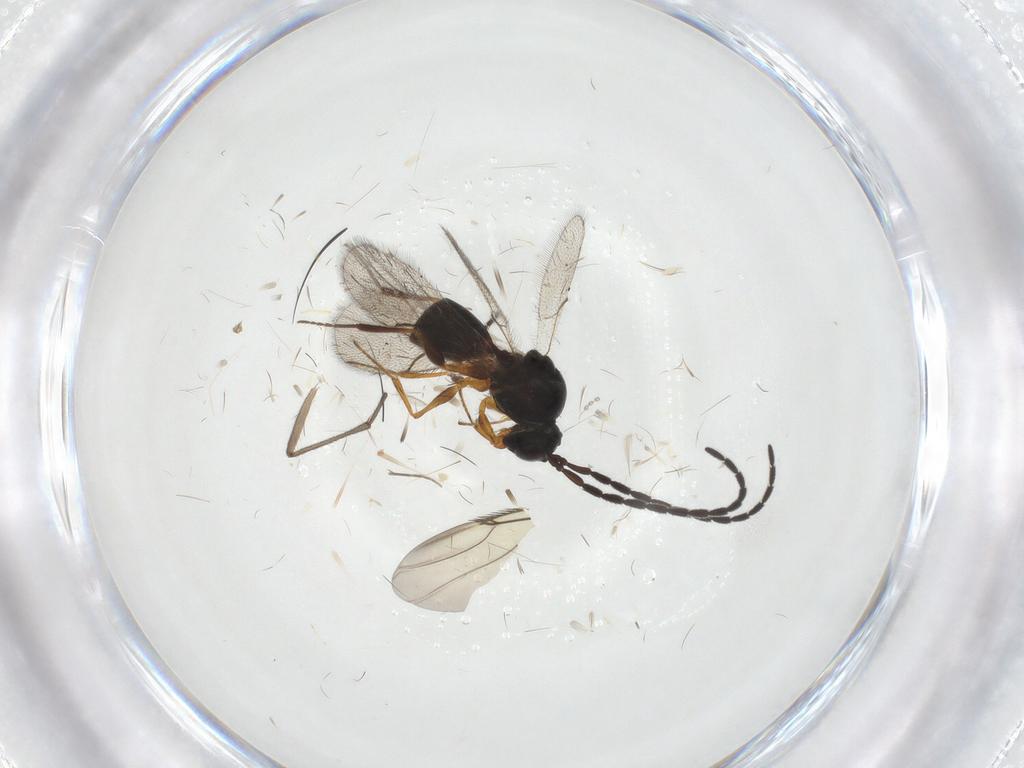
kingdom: Animalia
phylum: Arthropoda
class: Insecta
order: Hymenoptera
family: Figitidae
